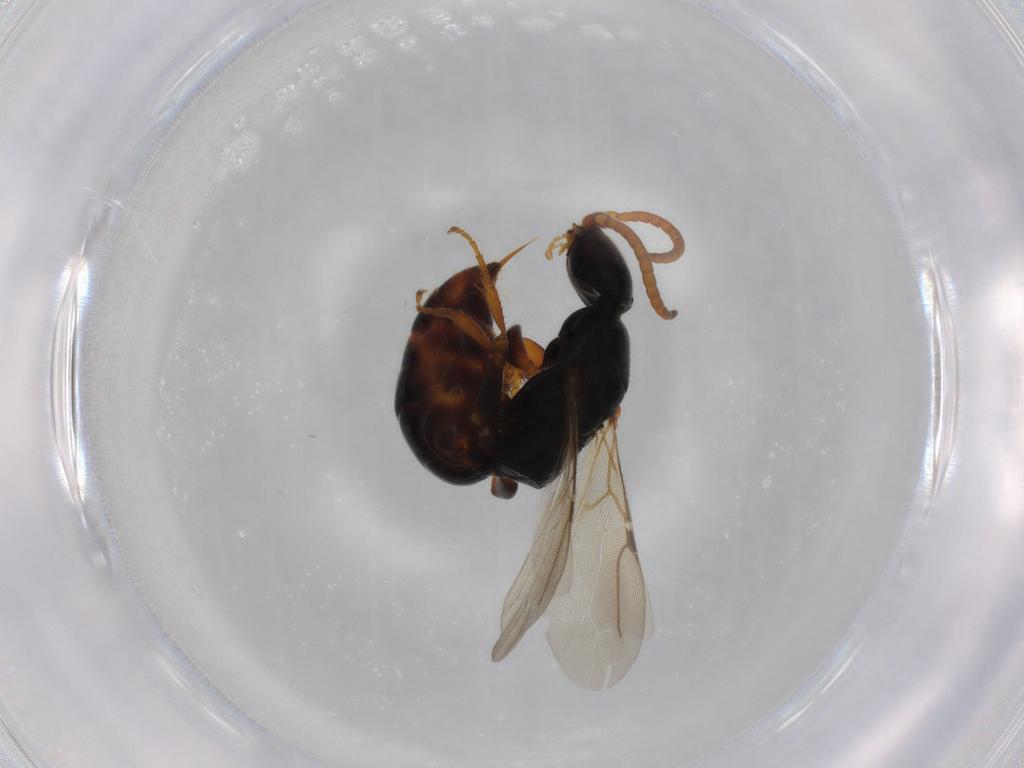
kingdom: Animalia
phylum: Arthropoda
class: Insecta
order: Hymenoptera
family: Bethylidae
